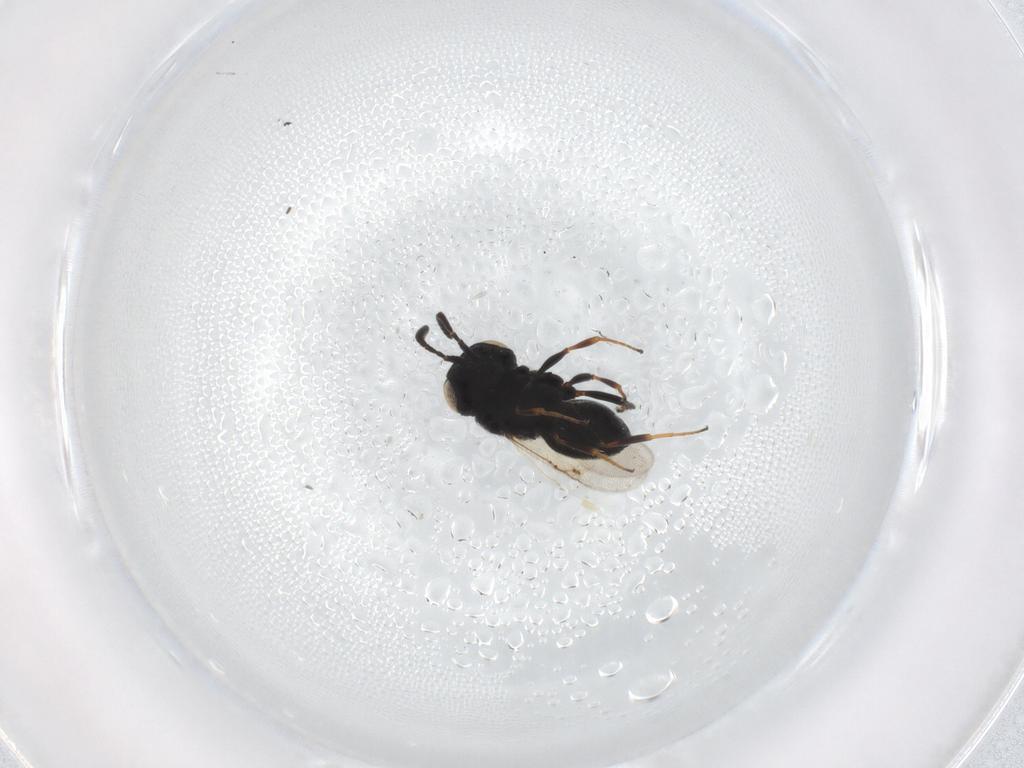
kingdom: Animalia
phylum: Arthropoda
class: Insecta
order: Hymenoptera
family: Scelionidae
